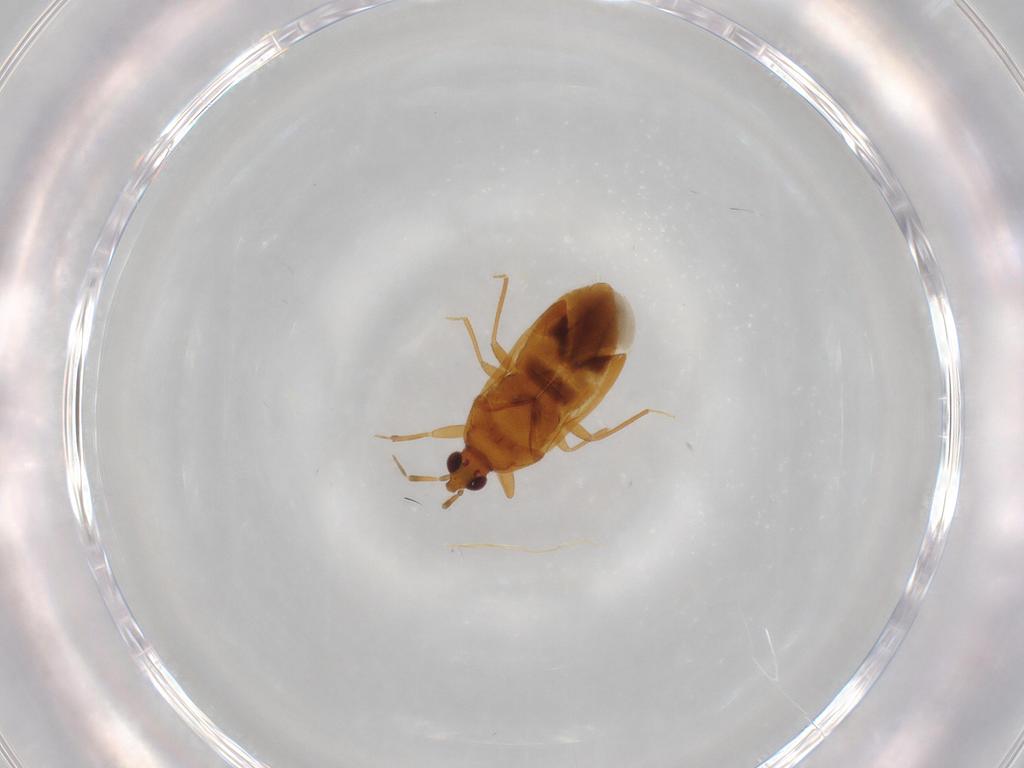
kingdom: Animalia
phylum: Arthropoda
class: Insecta
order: Hemiptera
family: Anthocoridae
